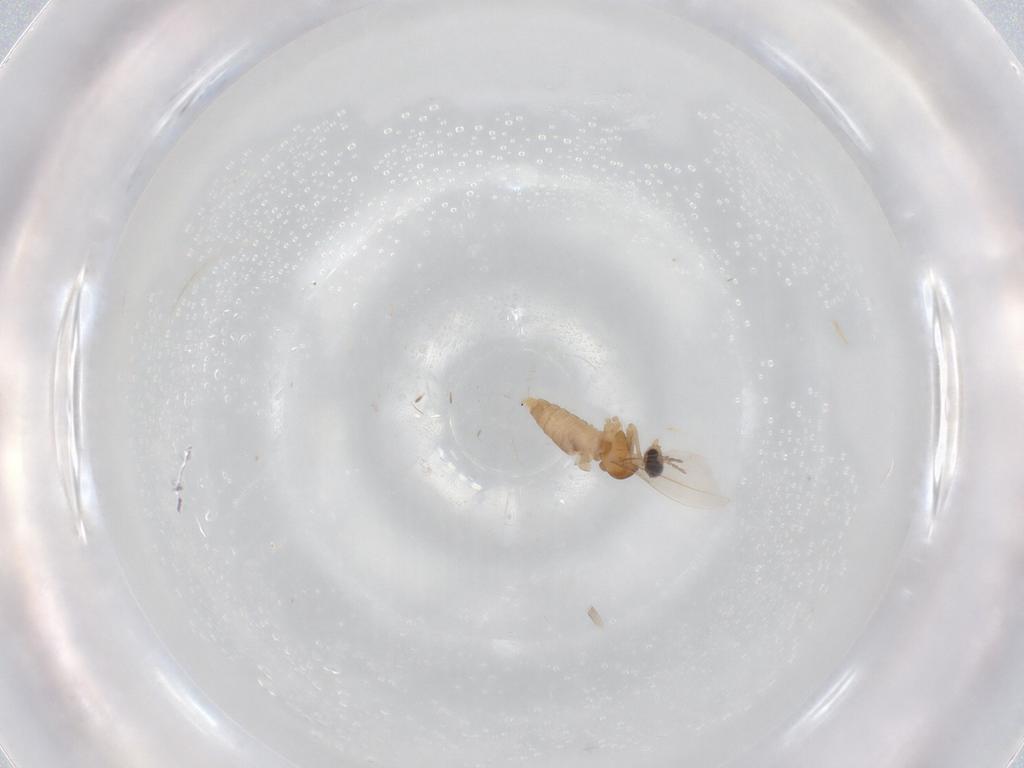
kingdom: Animalia
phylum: Arthropoda
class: Insecta
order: Diptera
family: Cecidomyiidae
